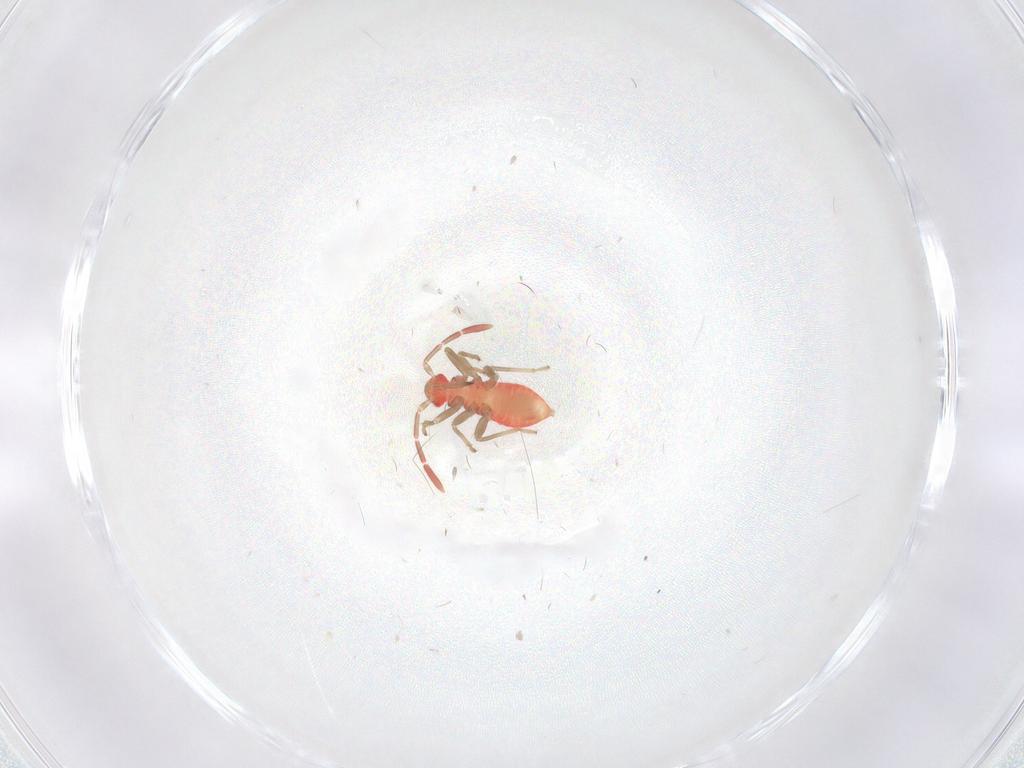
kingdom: Animalia
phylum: Arthropoda
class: Insecta
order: Hemiptera
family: Miridae
